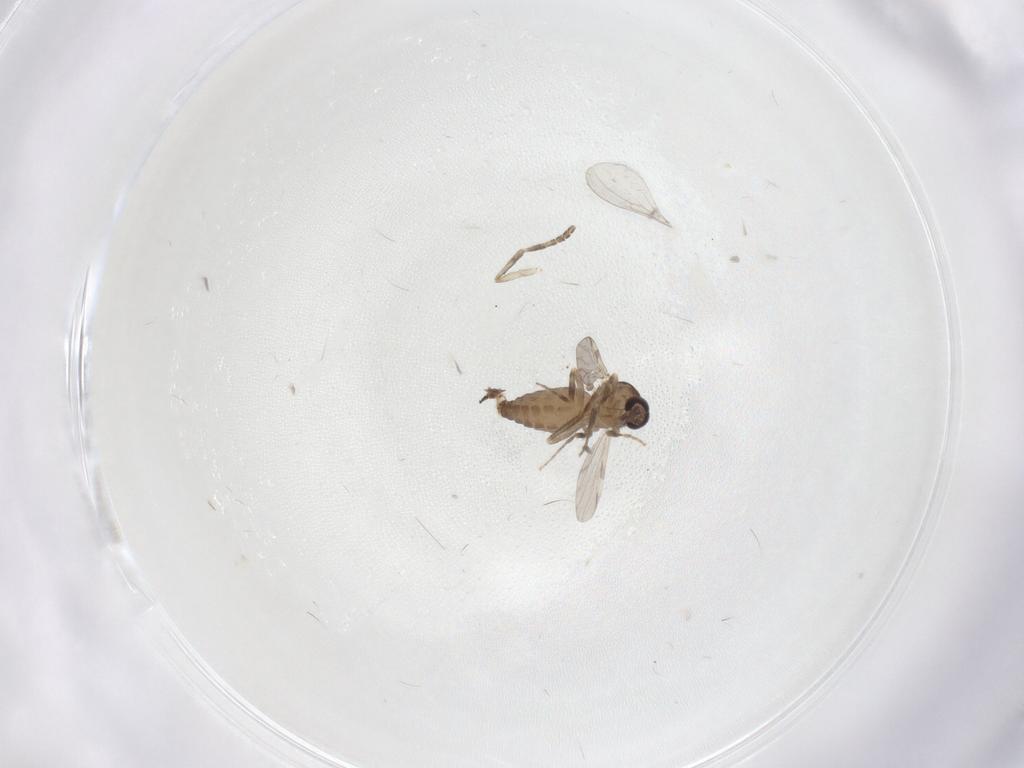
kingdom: Animalia
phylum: Arthropoda
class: Insecta
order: Diptera
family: Ceratopogonidae
